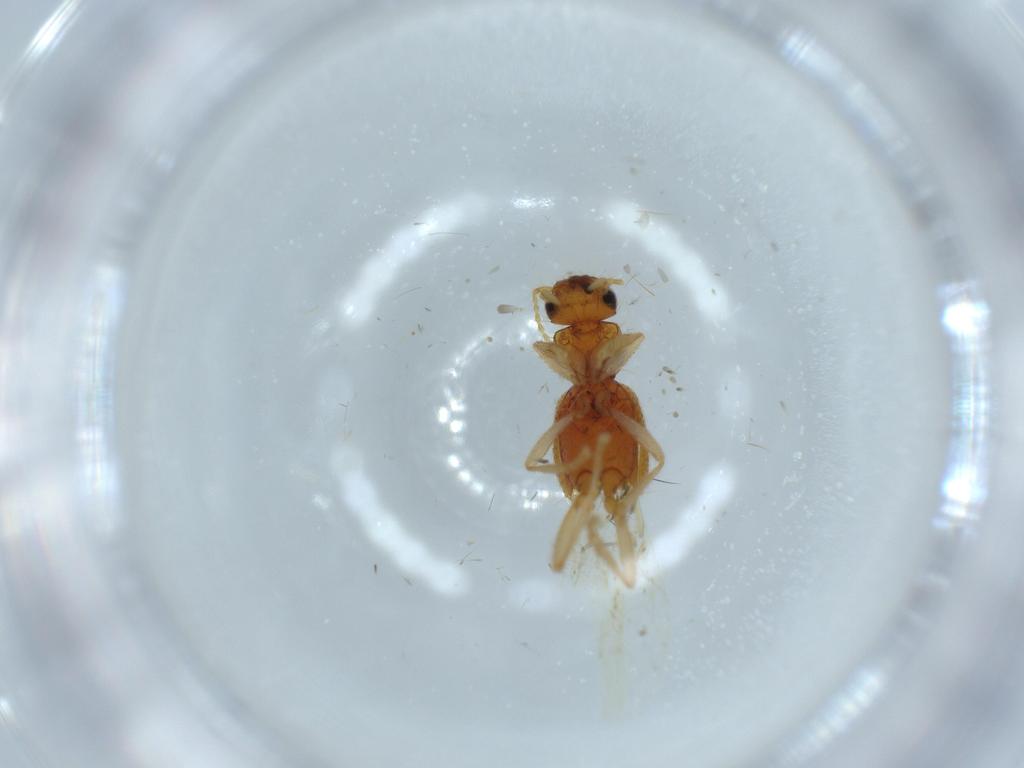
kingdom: Animalia
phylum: Arthropoda
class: Insecta
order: Coleoptera
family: Staphylinidae
